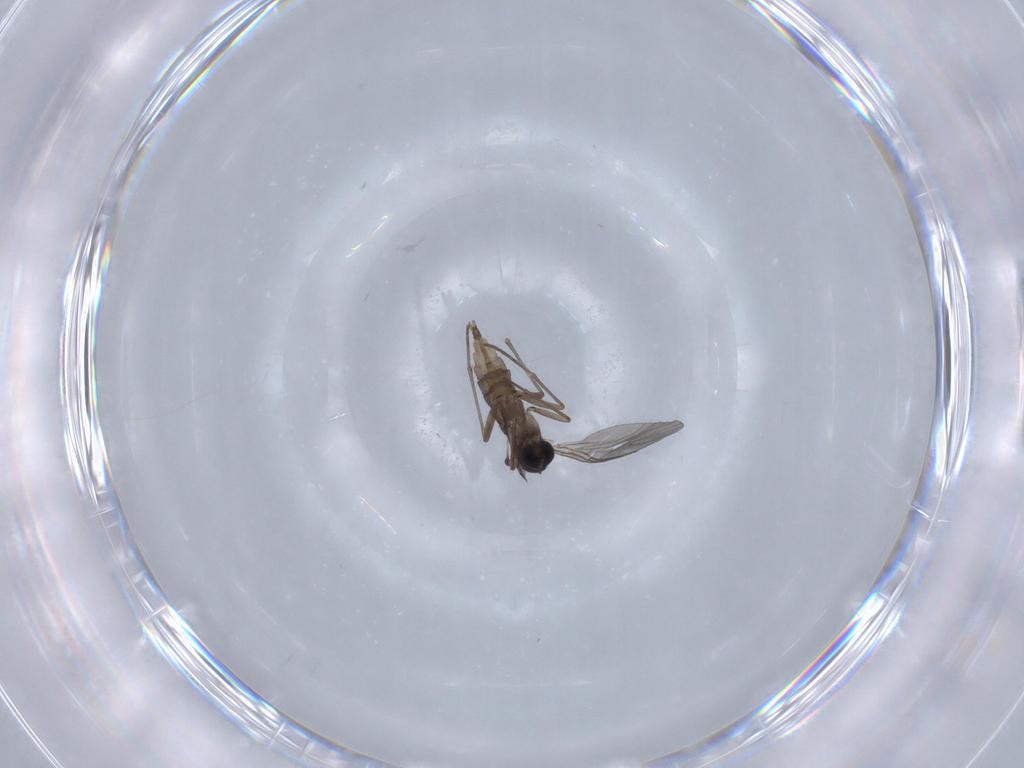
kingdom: Animalia
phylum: Arthropoda
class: Insecta
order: Diptera
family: Sciaridae
